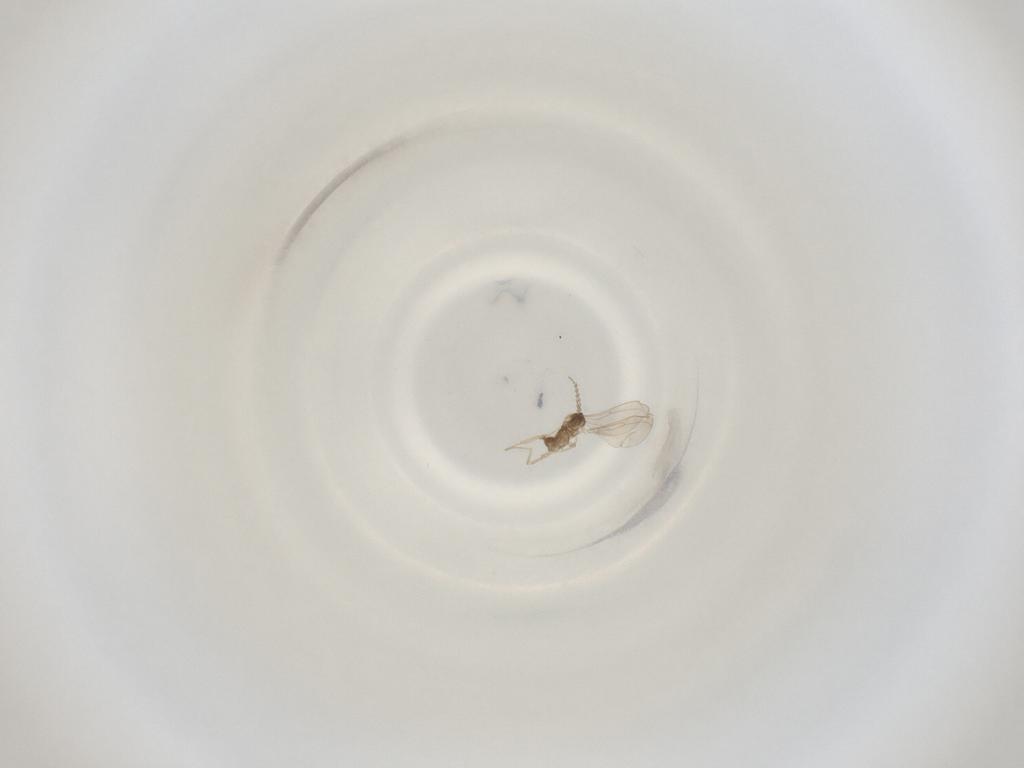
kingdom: Animalia
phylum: Arthropoda
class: Insecta
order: Diptera
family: Cecidomyiidae
